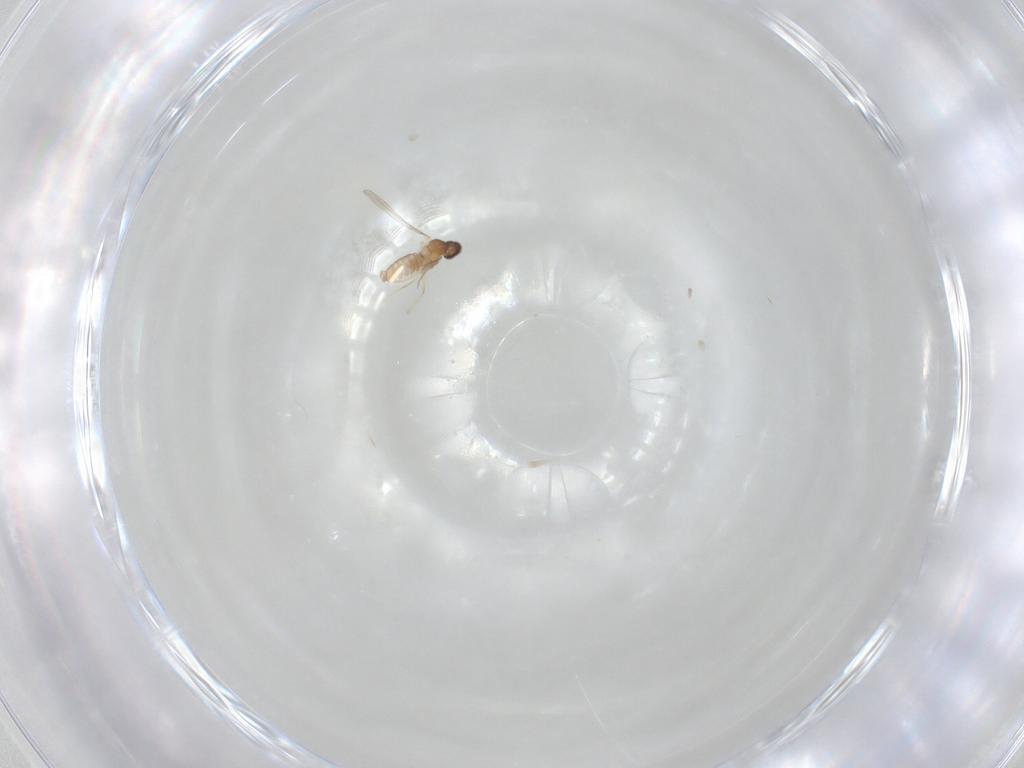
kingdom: Animalia
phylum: Arthropoda
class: Insecta
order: Diptera
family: Cecidomyiidae
